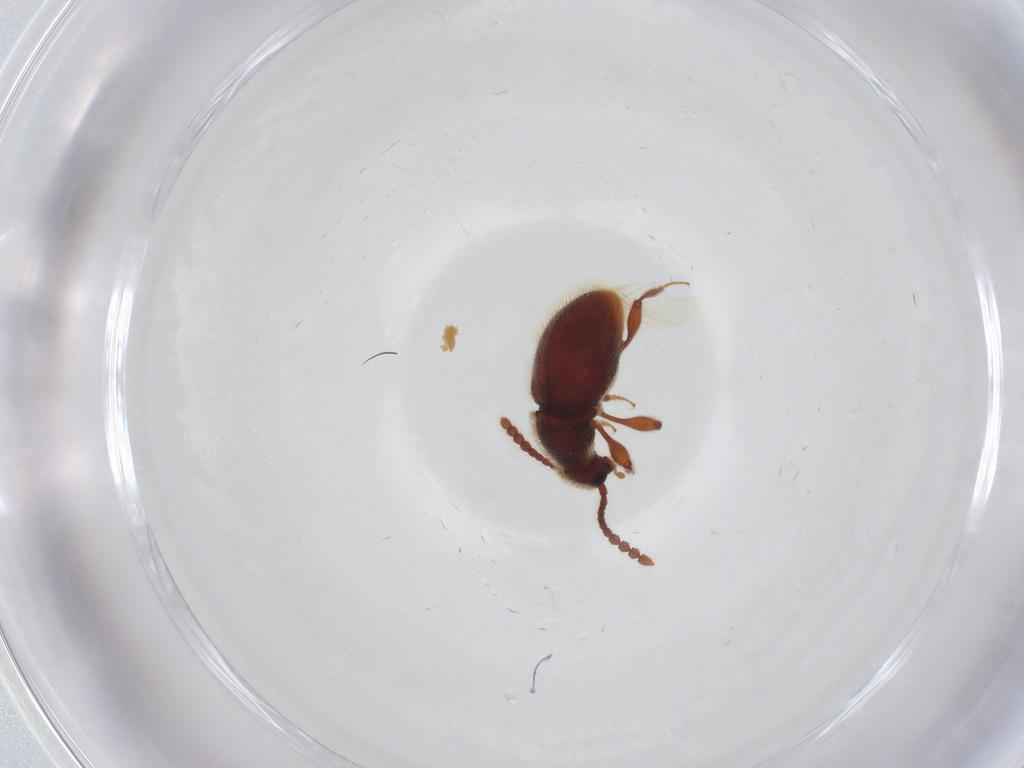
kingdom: Animalia
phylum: Arthropoda
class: Insecta
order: Coleoptera
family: Staphylinidae
